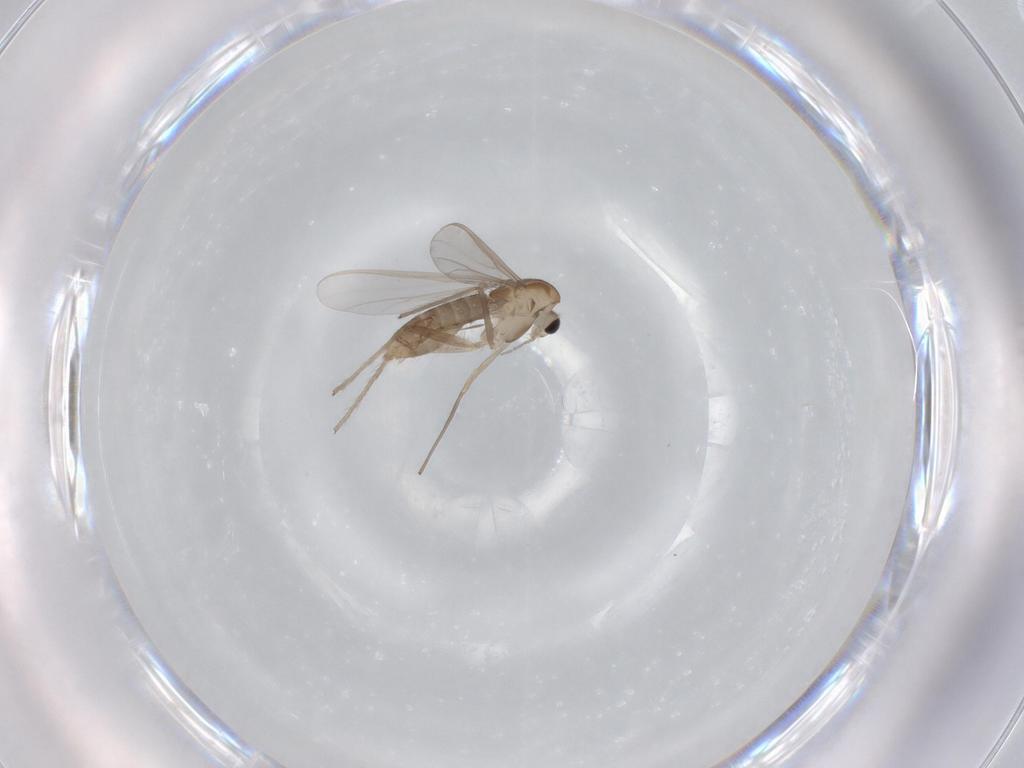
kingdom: Animalia
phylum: Arthropoda
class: Insecta
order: Diptera
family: Chironomidae
